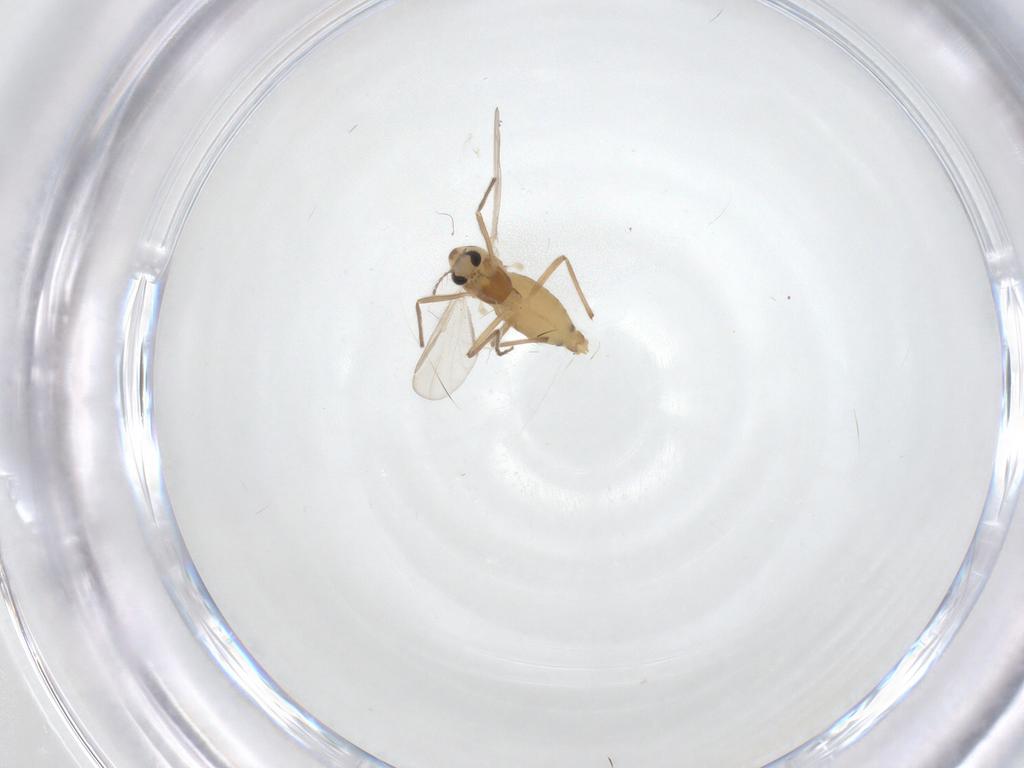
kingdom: Animalia
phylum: Arthropoda
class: Insecta
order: Diptera
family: Chironomidae
